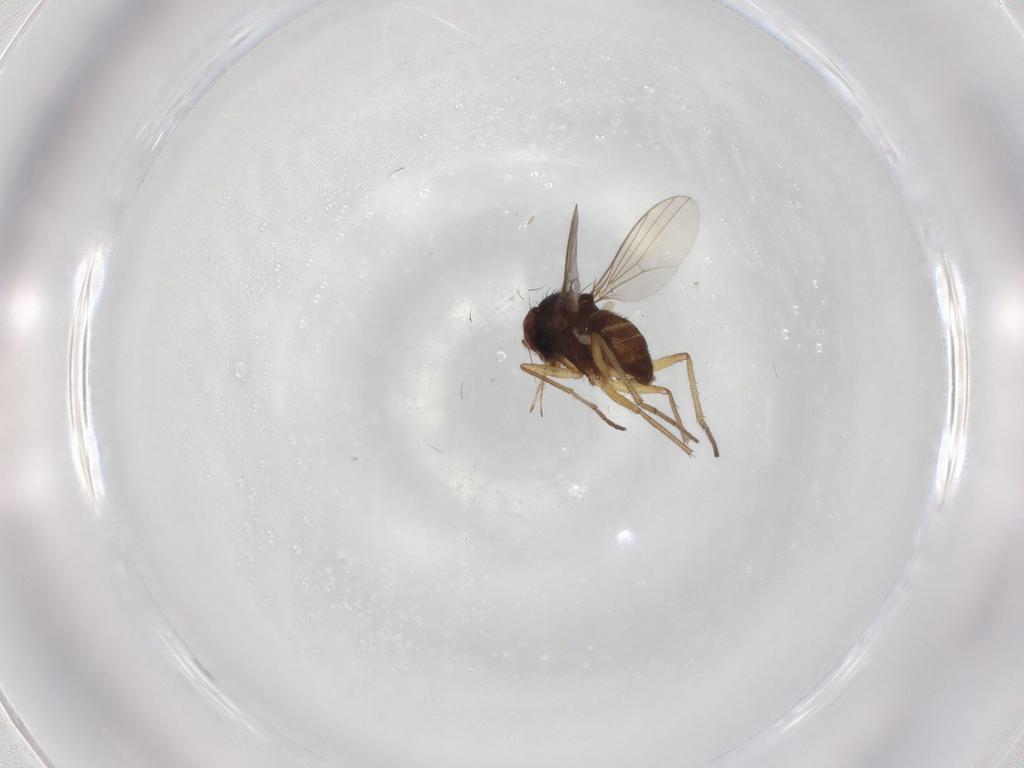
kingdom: Animalia
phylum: Arthropoda
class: Insecta
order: Diptera
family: Dolichopodidae
